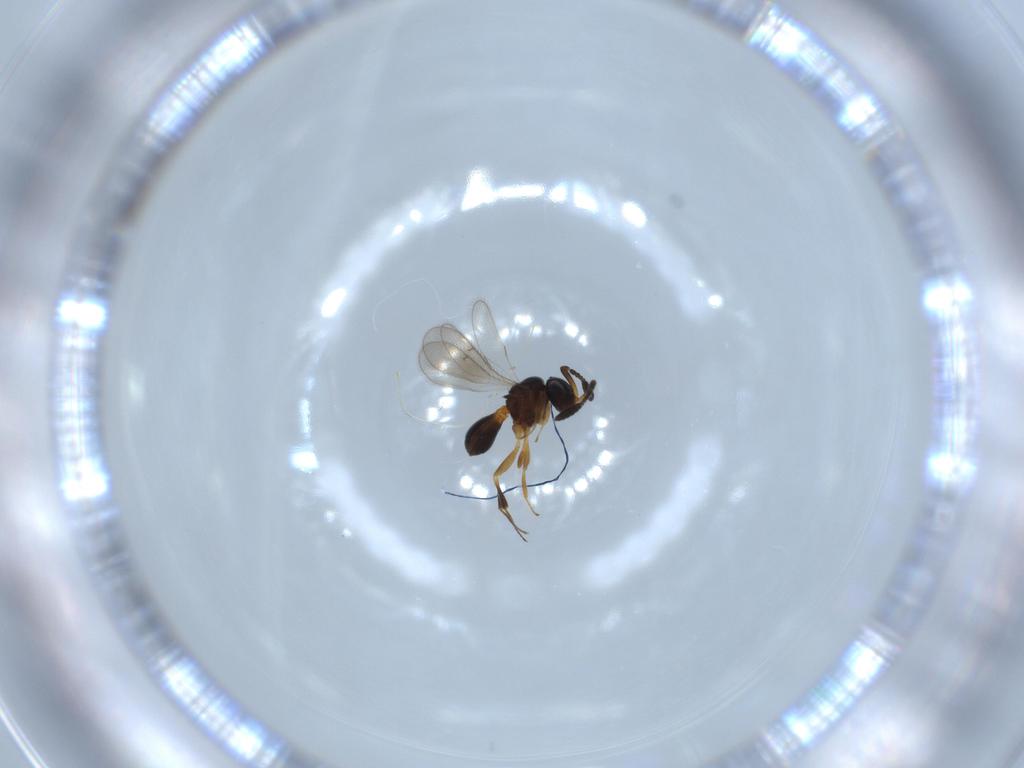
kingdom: Animalia
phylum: Arthropoda
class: Insecta
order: Hymenoptera
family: Scelionidae
